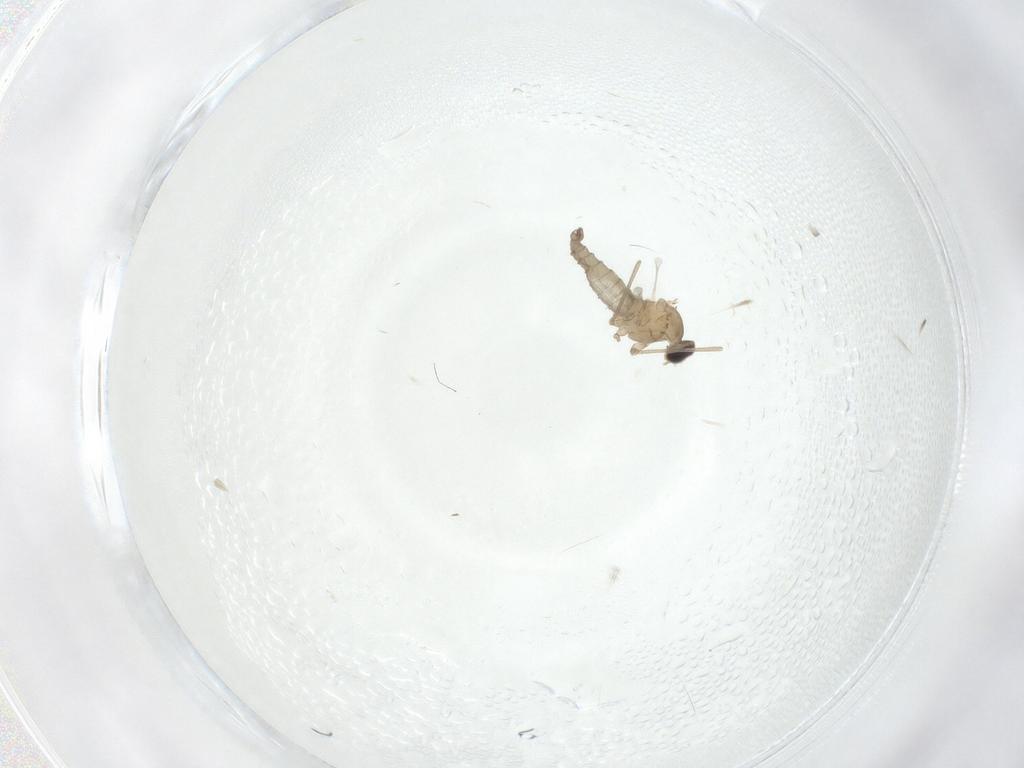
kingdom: Animalia
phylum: Arthropoda
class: Insecta
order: Diptera
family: Cecidomyiidae
